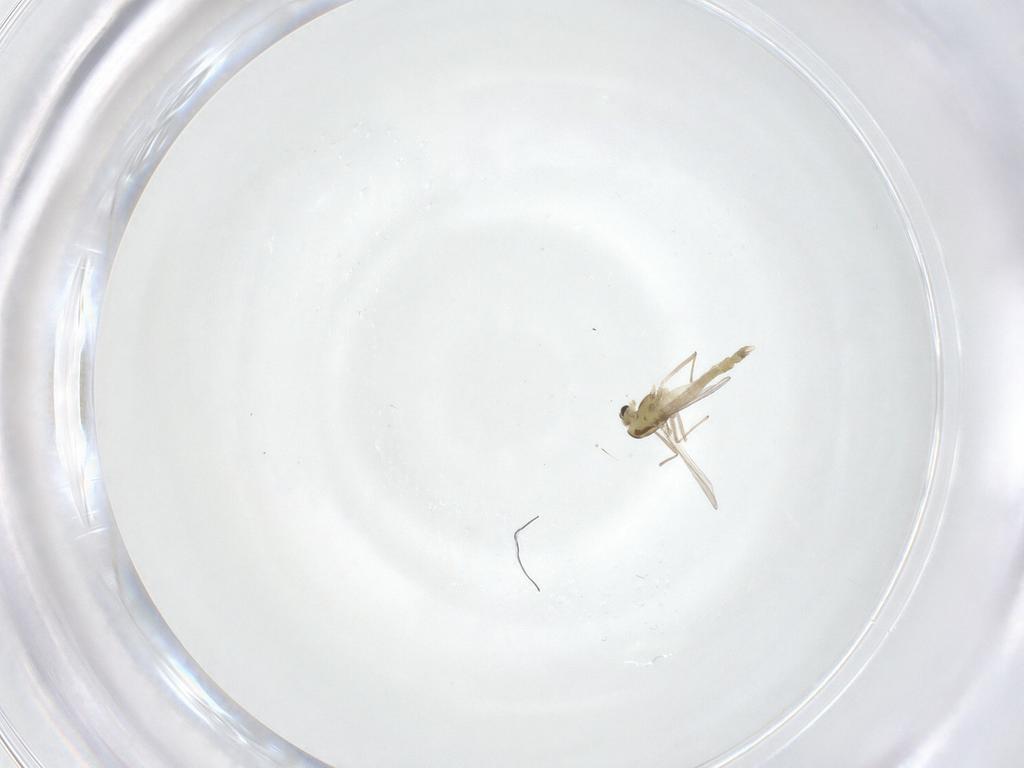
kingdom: Animalia
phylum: Arthropoda
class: Insecta
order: Diptera
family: Chironomidae
